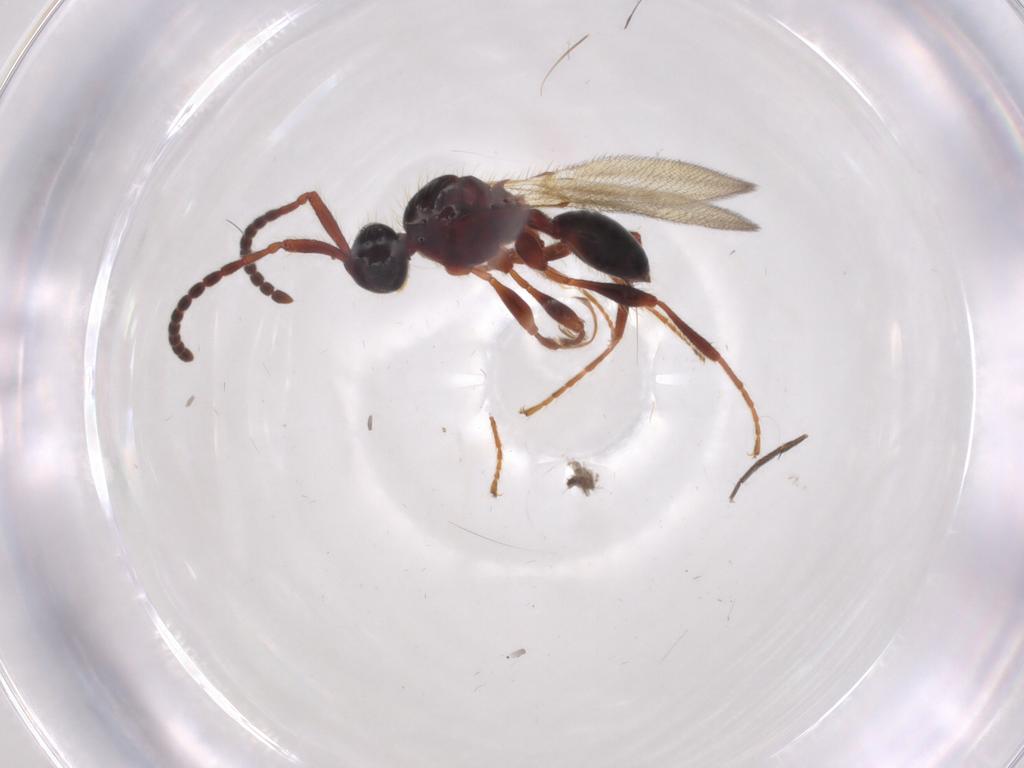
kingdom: Animalia
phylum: Arthropoda
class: Insecta
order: Hymenoptera
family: Diapriidae
